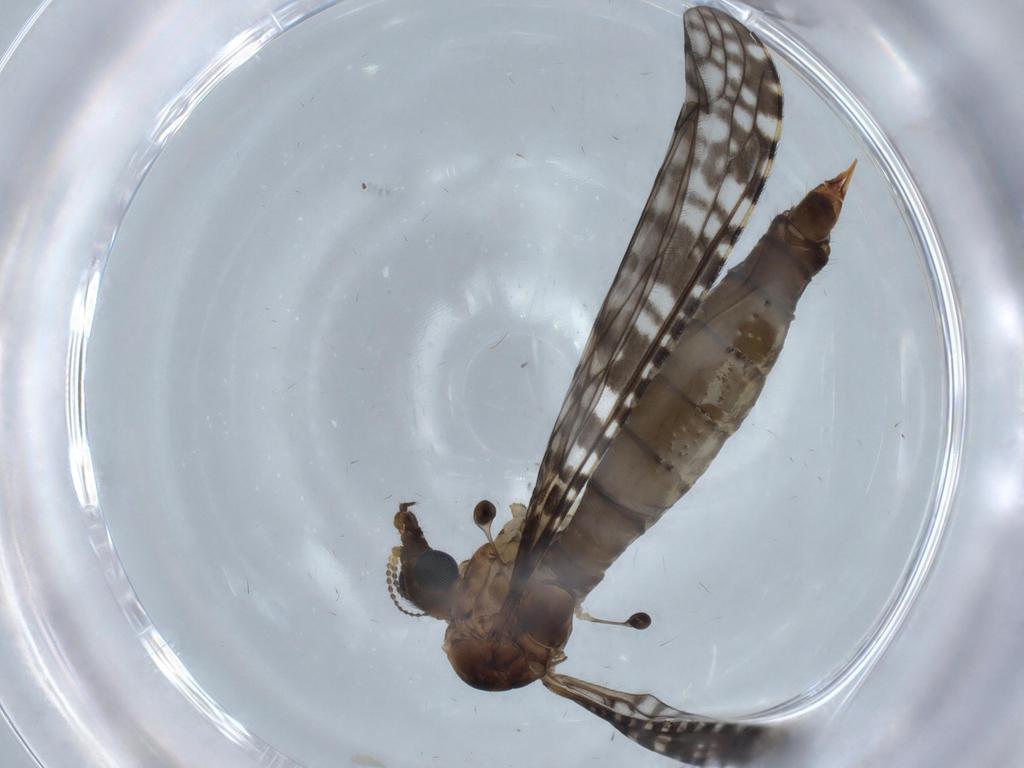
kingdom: Animalia
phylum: Arthropoda
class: Insecta
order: Diptera
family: Limoniidae
